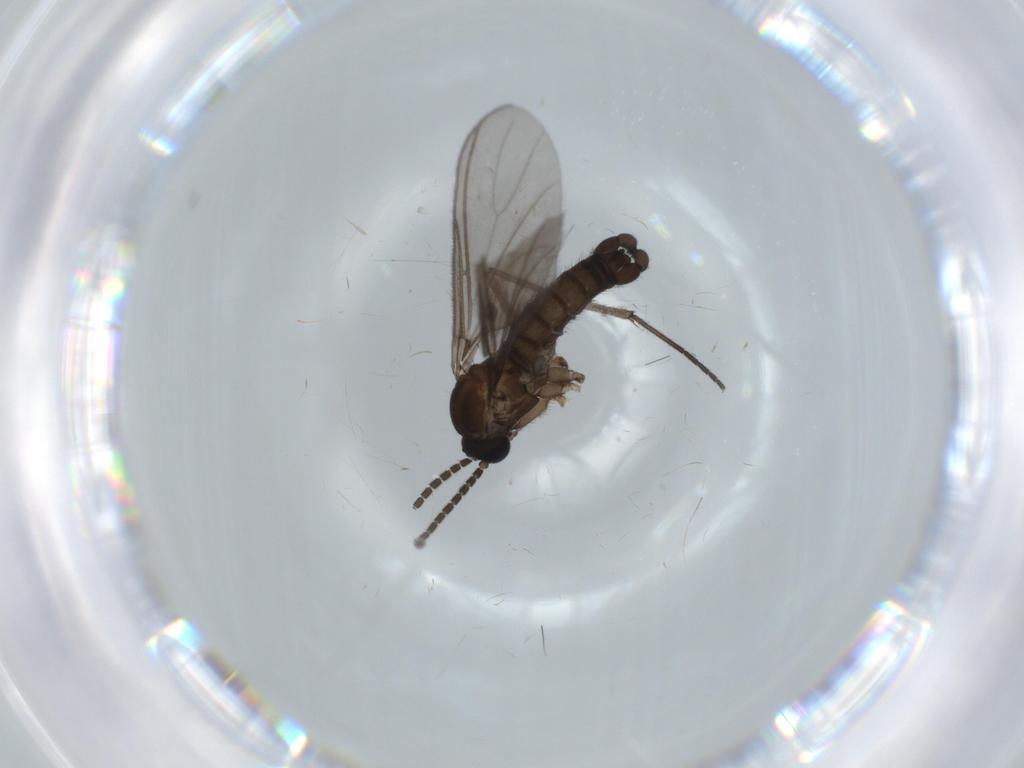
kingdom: Animalia
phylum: Arthropoda
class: Insecta
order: Diptera
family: Sciaridae
